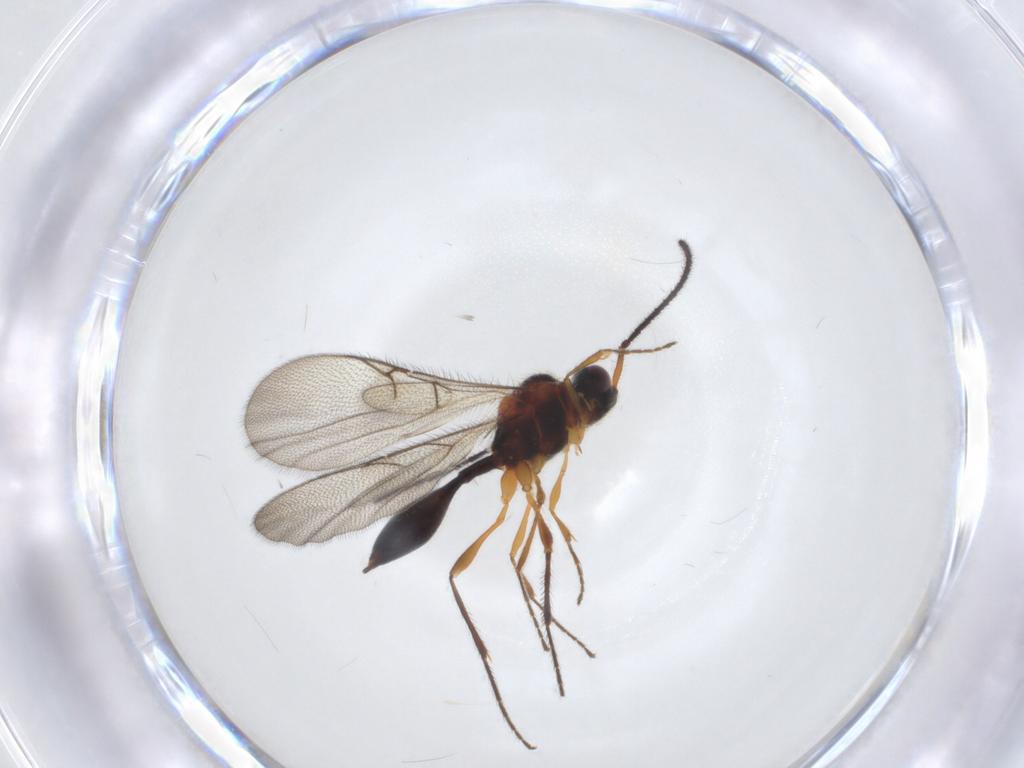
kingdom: Animalia
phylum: Arthropoda
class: Insecta
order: Hymenoptera
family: Diapriidae
